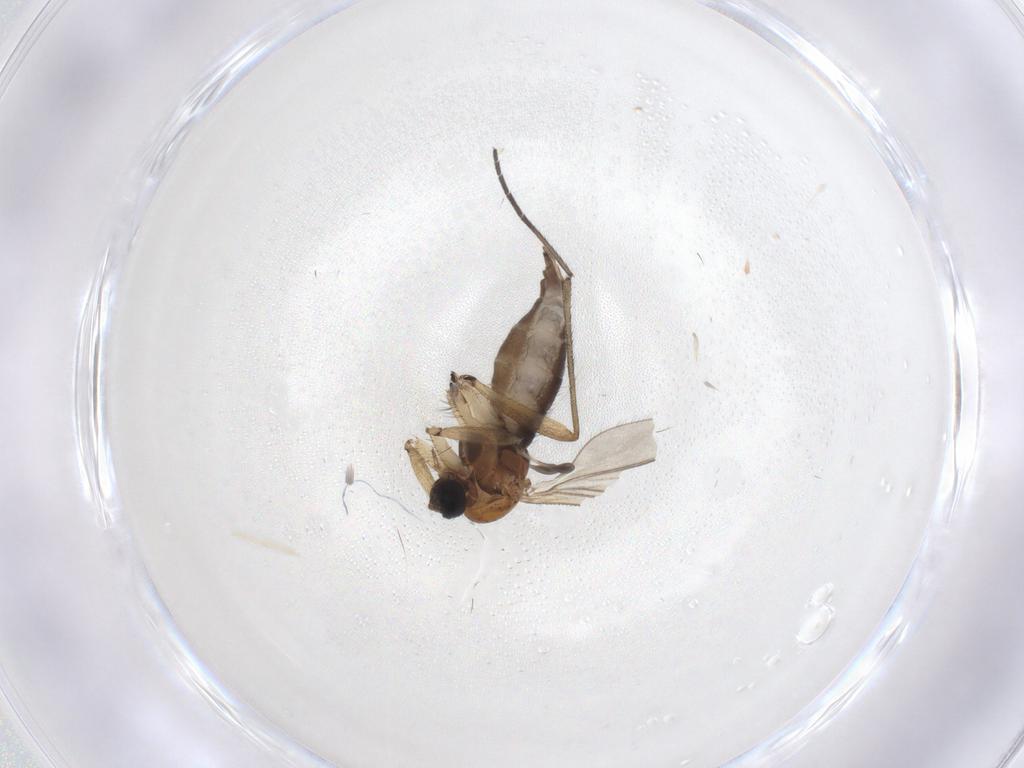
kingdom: Animalia
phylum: Arthropoda
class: Insecta
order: Diptera
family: Sciaridae
